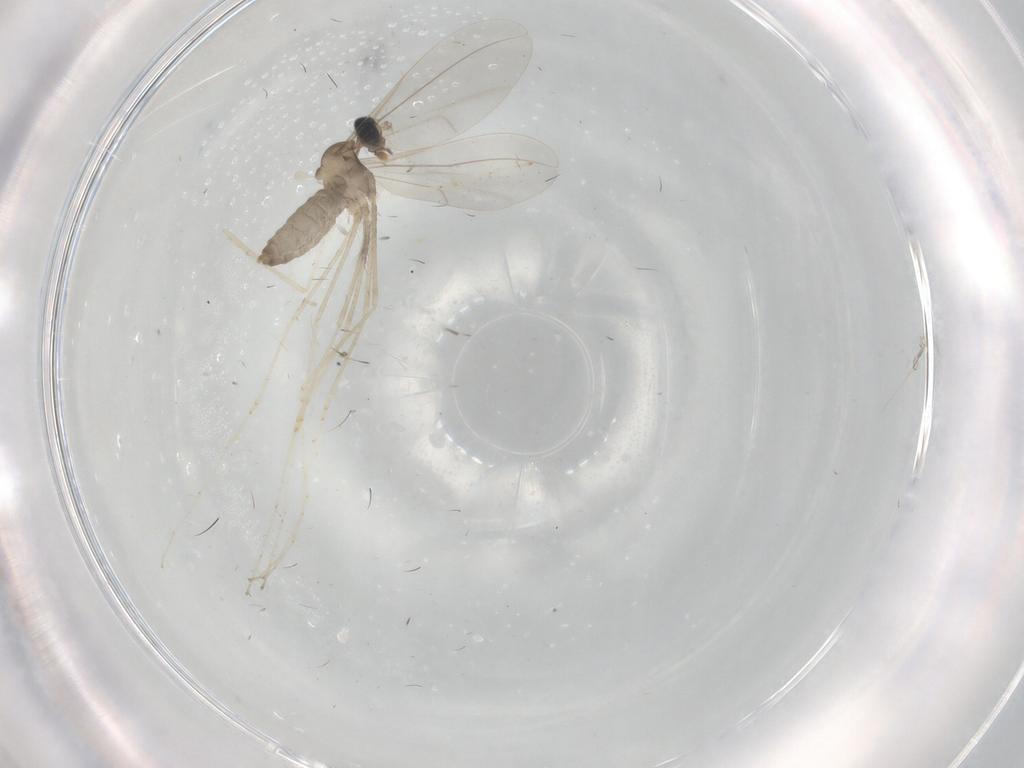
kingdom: Animalia
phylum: Arthropoda
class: Insecta
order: Diptera
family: Cecidomyiidae
